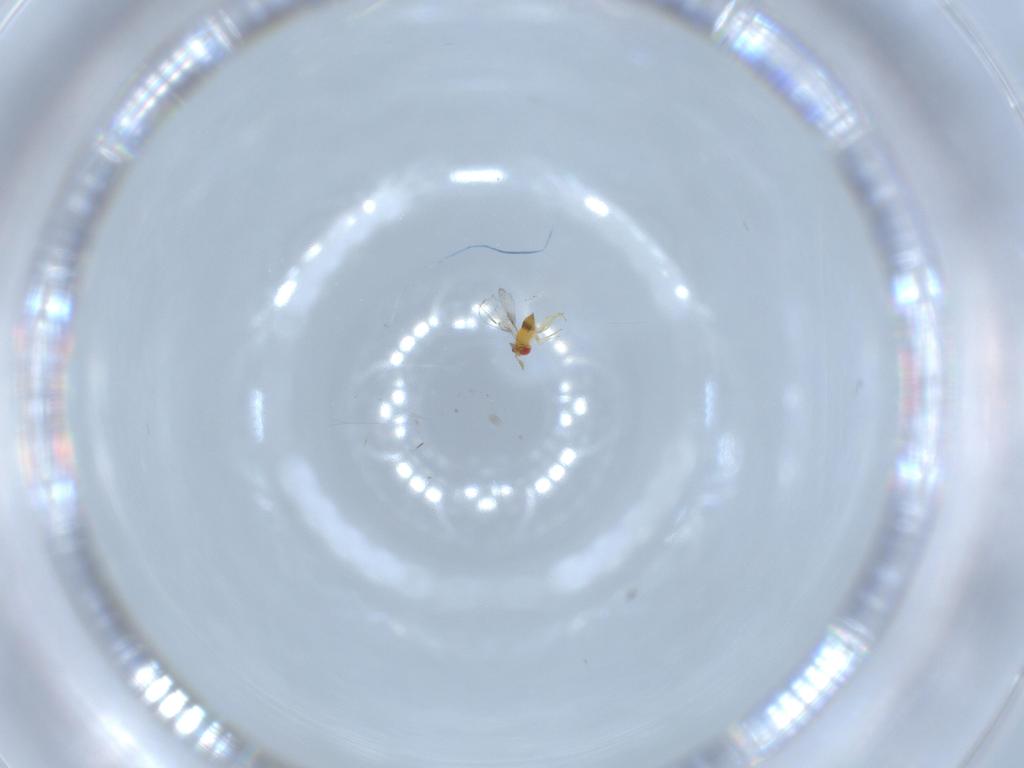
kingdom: Animalia
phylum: Arthropoda
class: Insecta
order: Hymenoptera
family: Trichogrammatidae
